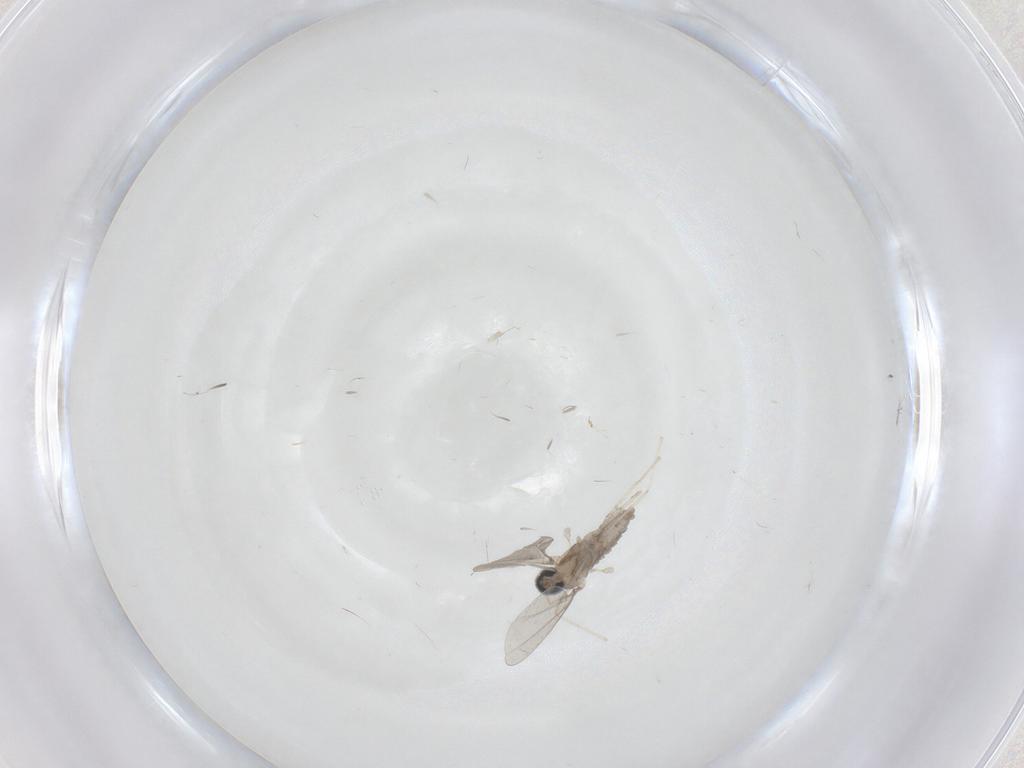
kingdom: Animalia
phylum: Arthropoda
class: Insecta
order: Diptera
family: Cecidomyiidae
